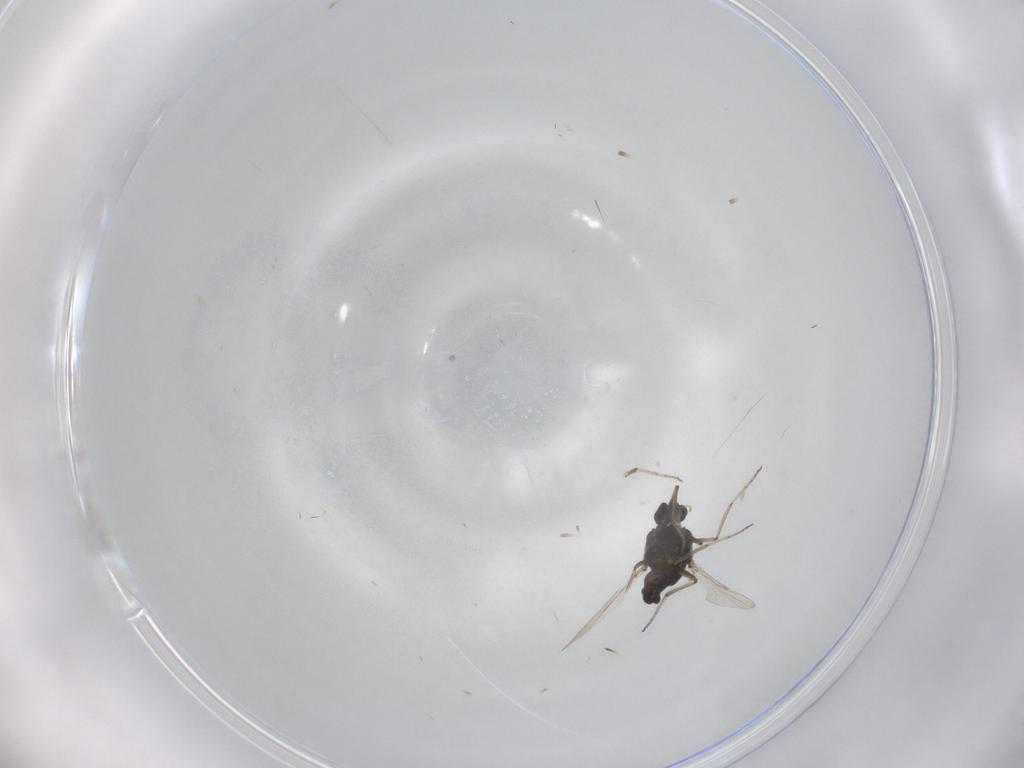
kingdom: Animalia
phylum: Arthropoda
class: Insecta
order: Diptera
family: Ceratopogonidae
